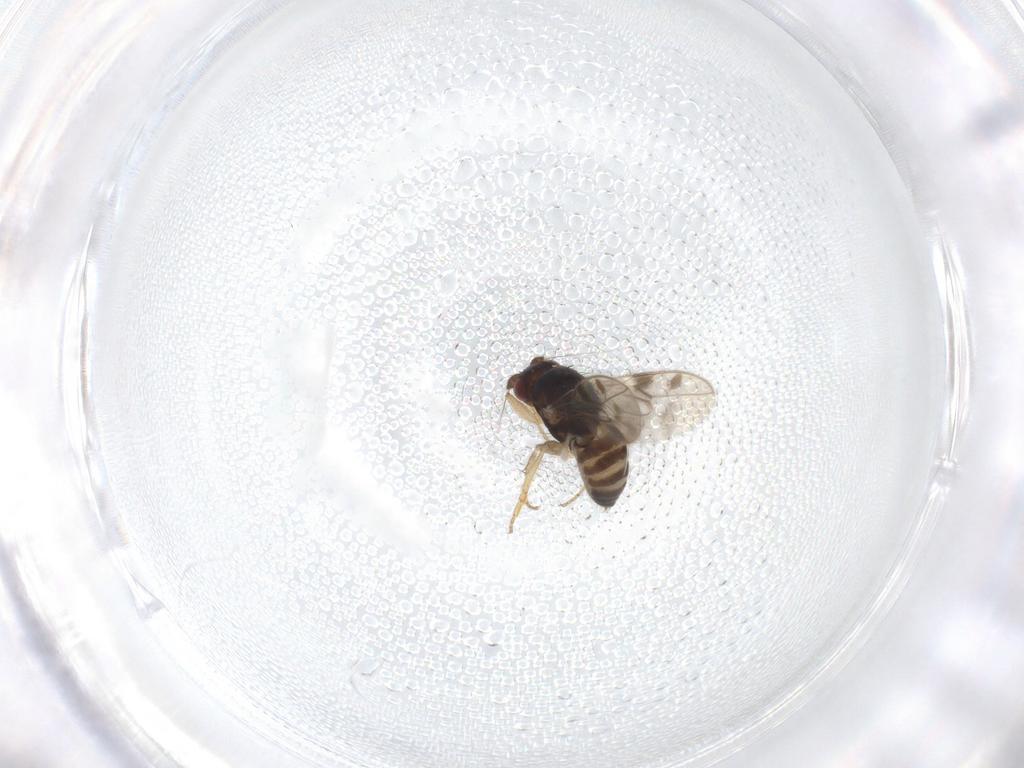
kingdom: Animalia
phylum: Arthropoda
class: Insecta
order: Diptera
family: Sphaeroceridae
